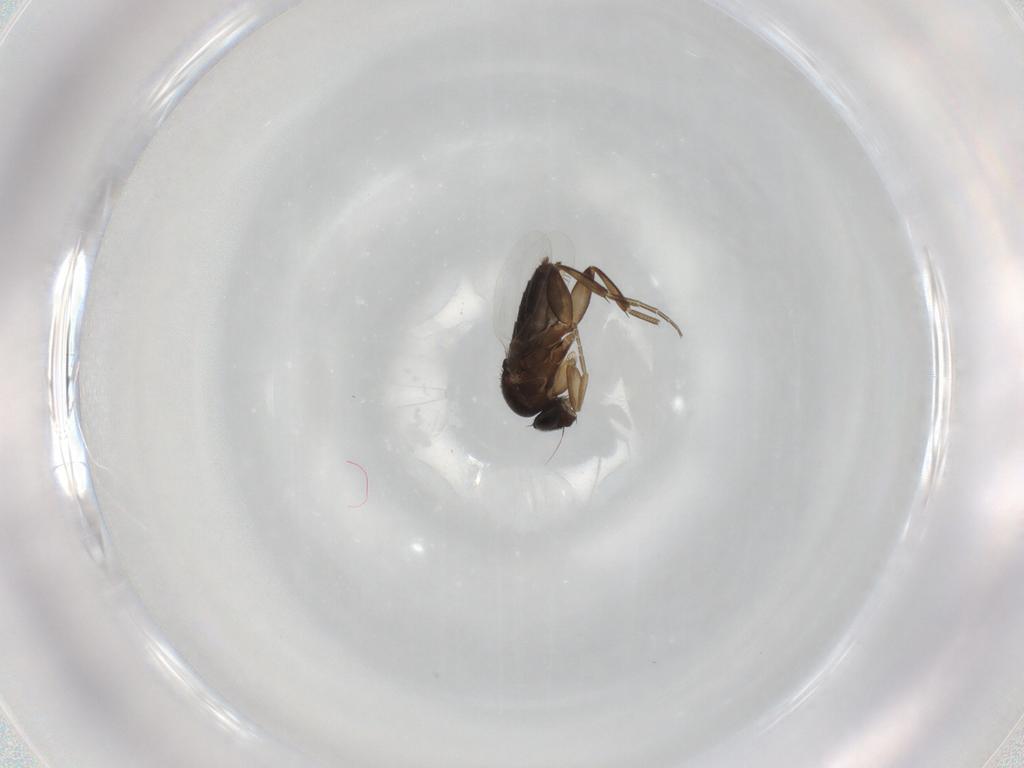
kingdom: Animalia
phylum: Arthropoda
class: Insecta
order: Diptera
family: Phoridae
